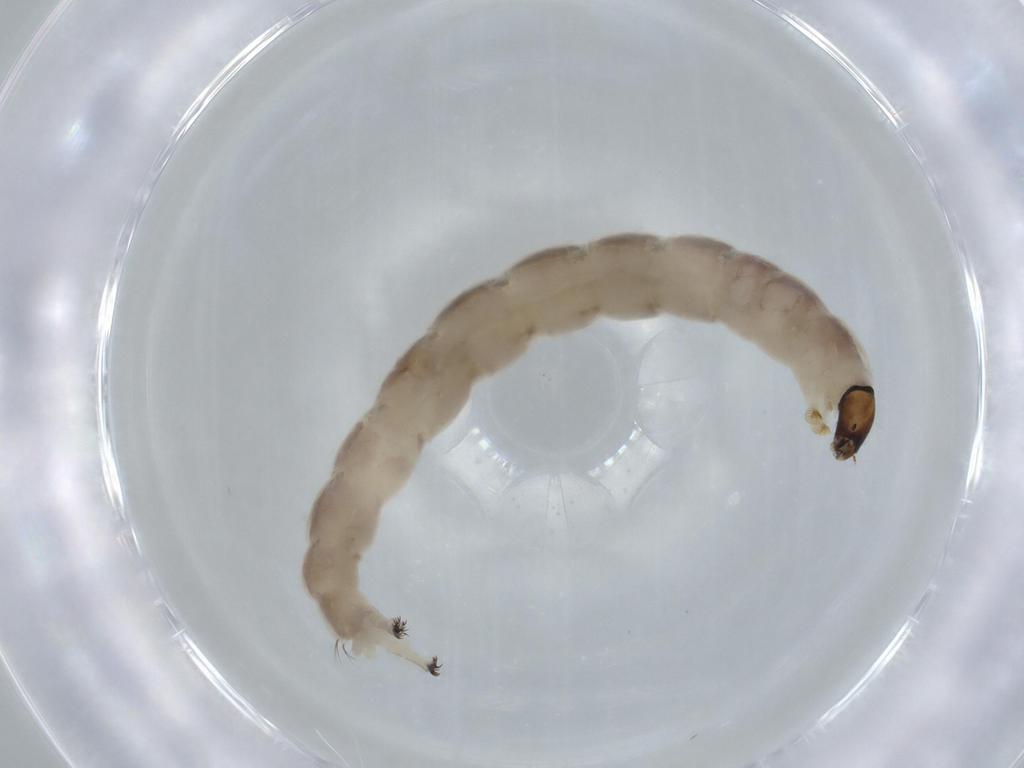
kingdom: Animalia
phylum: Arthropoda
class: Insecta
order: Diptera
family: Chironomidae
